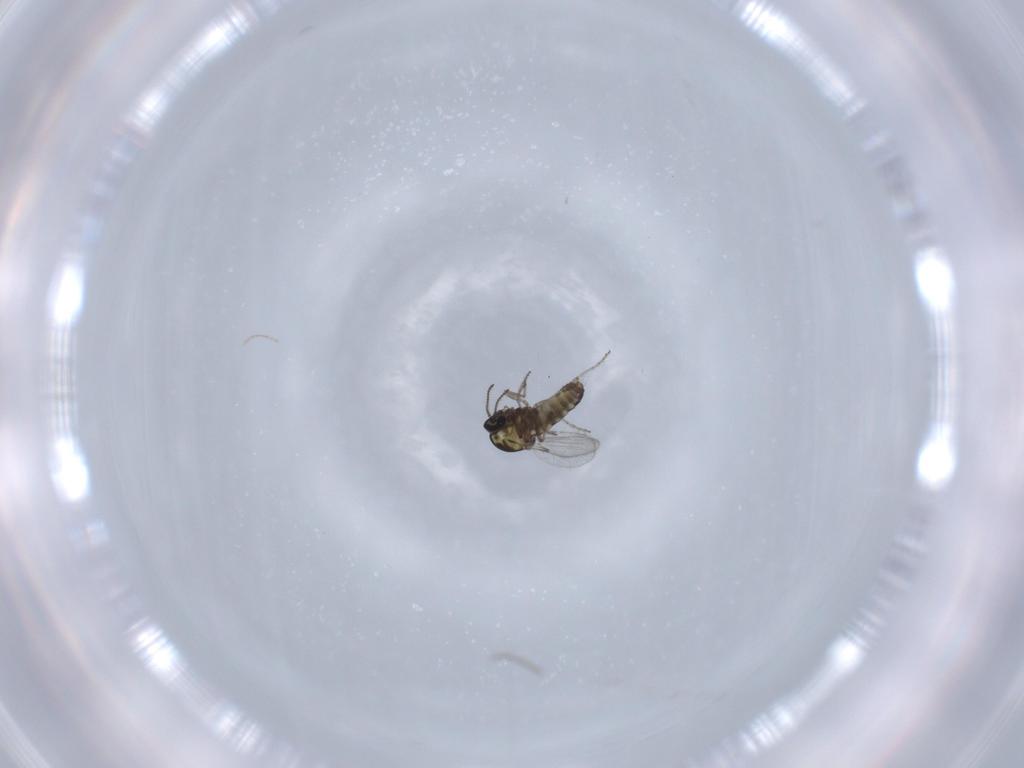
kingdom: Animalia
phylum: Arthropoda
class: Insecta
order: Diptera
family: Ceratopogonidae
